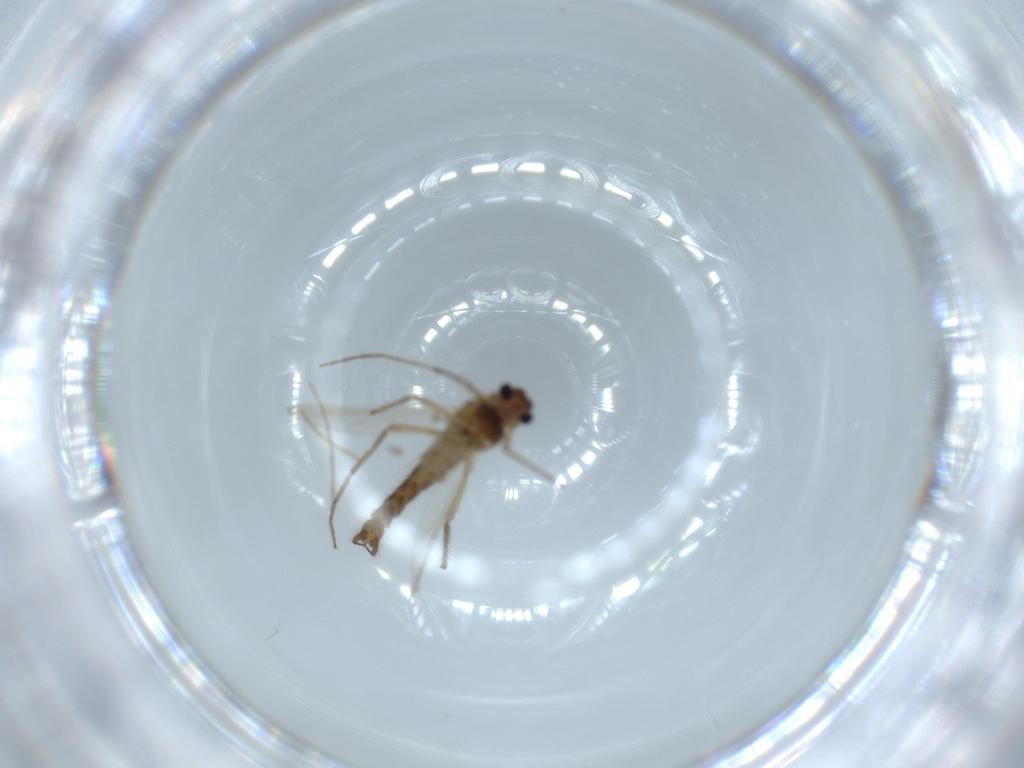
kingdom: Animalia
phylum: Arthropoda
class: Insecta
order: Diptera
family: Chironomidae
